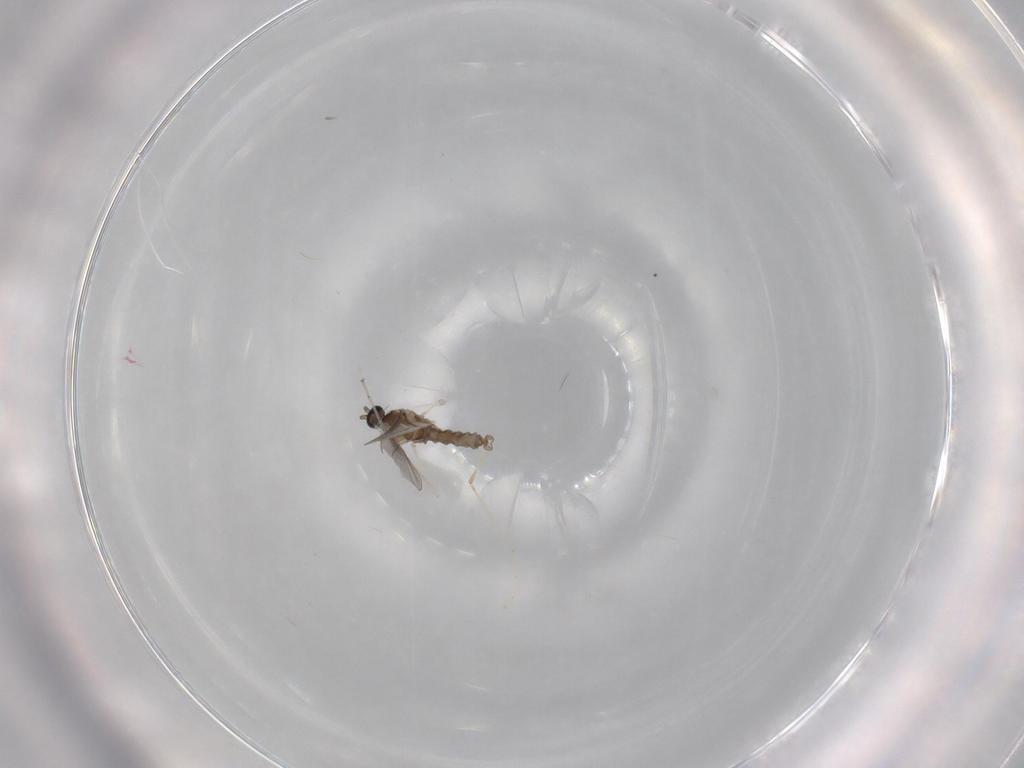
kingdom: Animalia
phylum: Arthropoda
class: Insecta
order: Diptera
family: Cecidomyiidae
